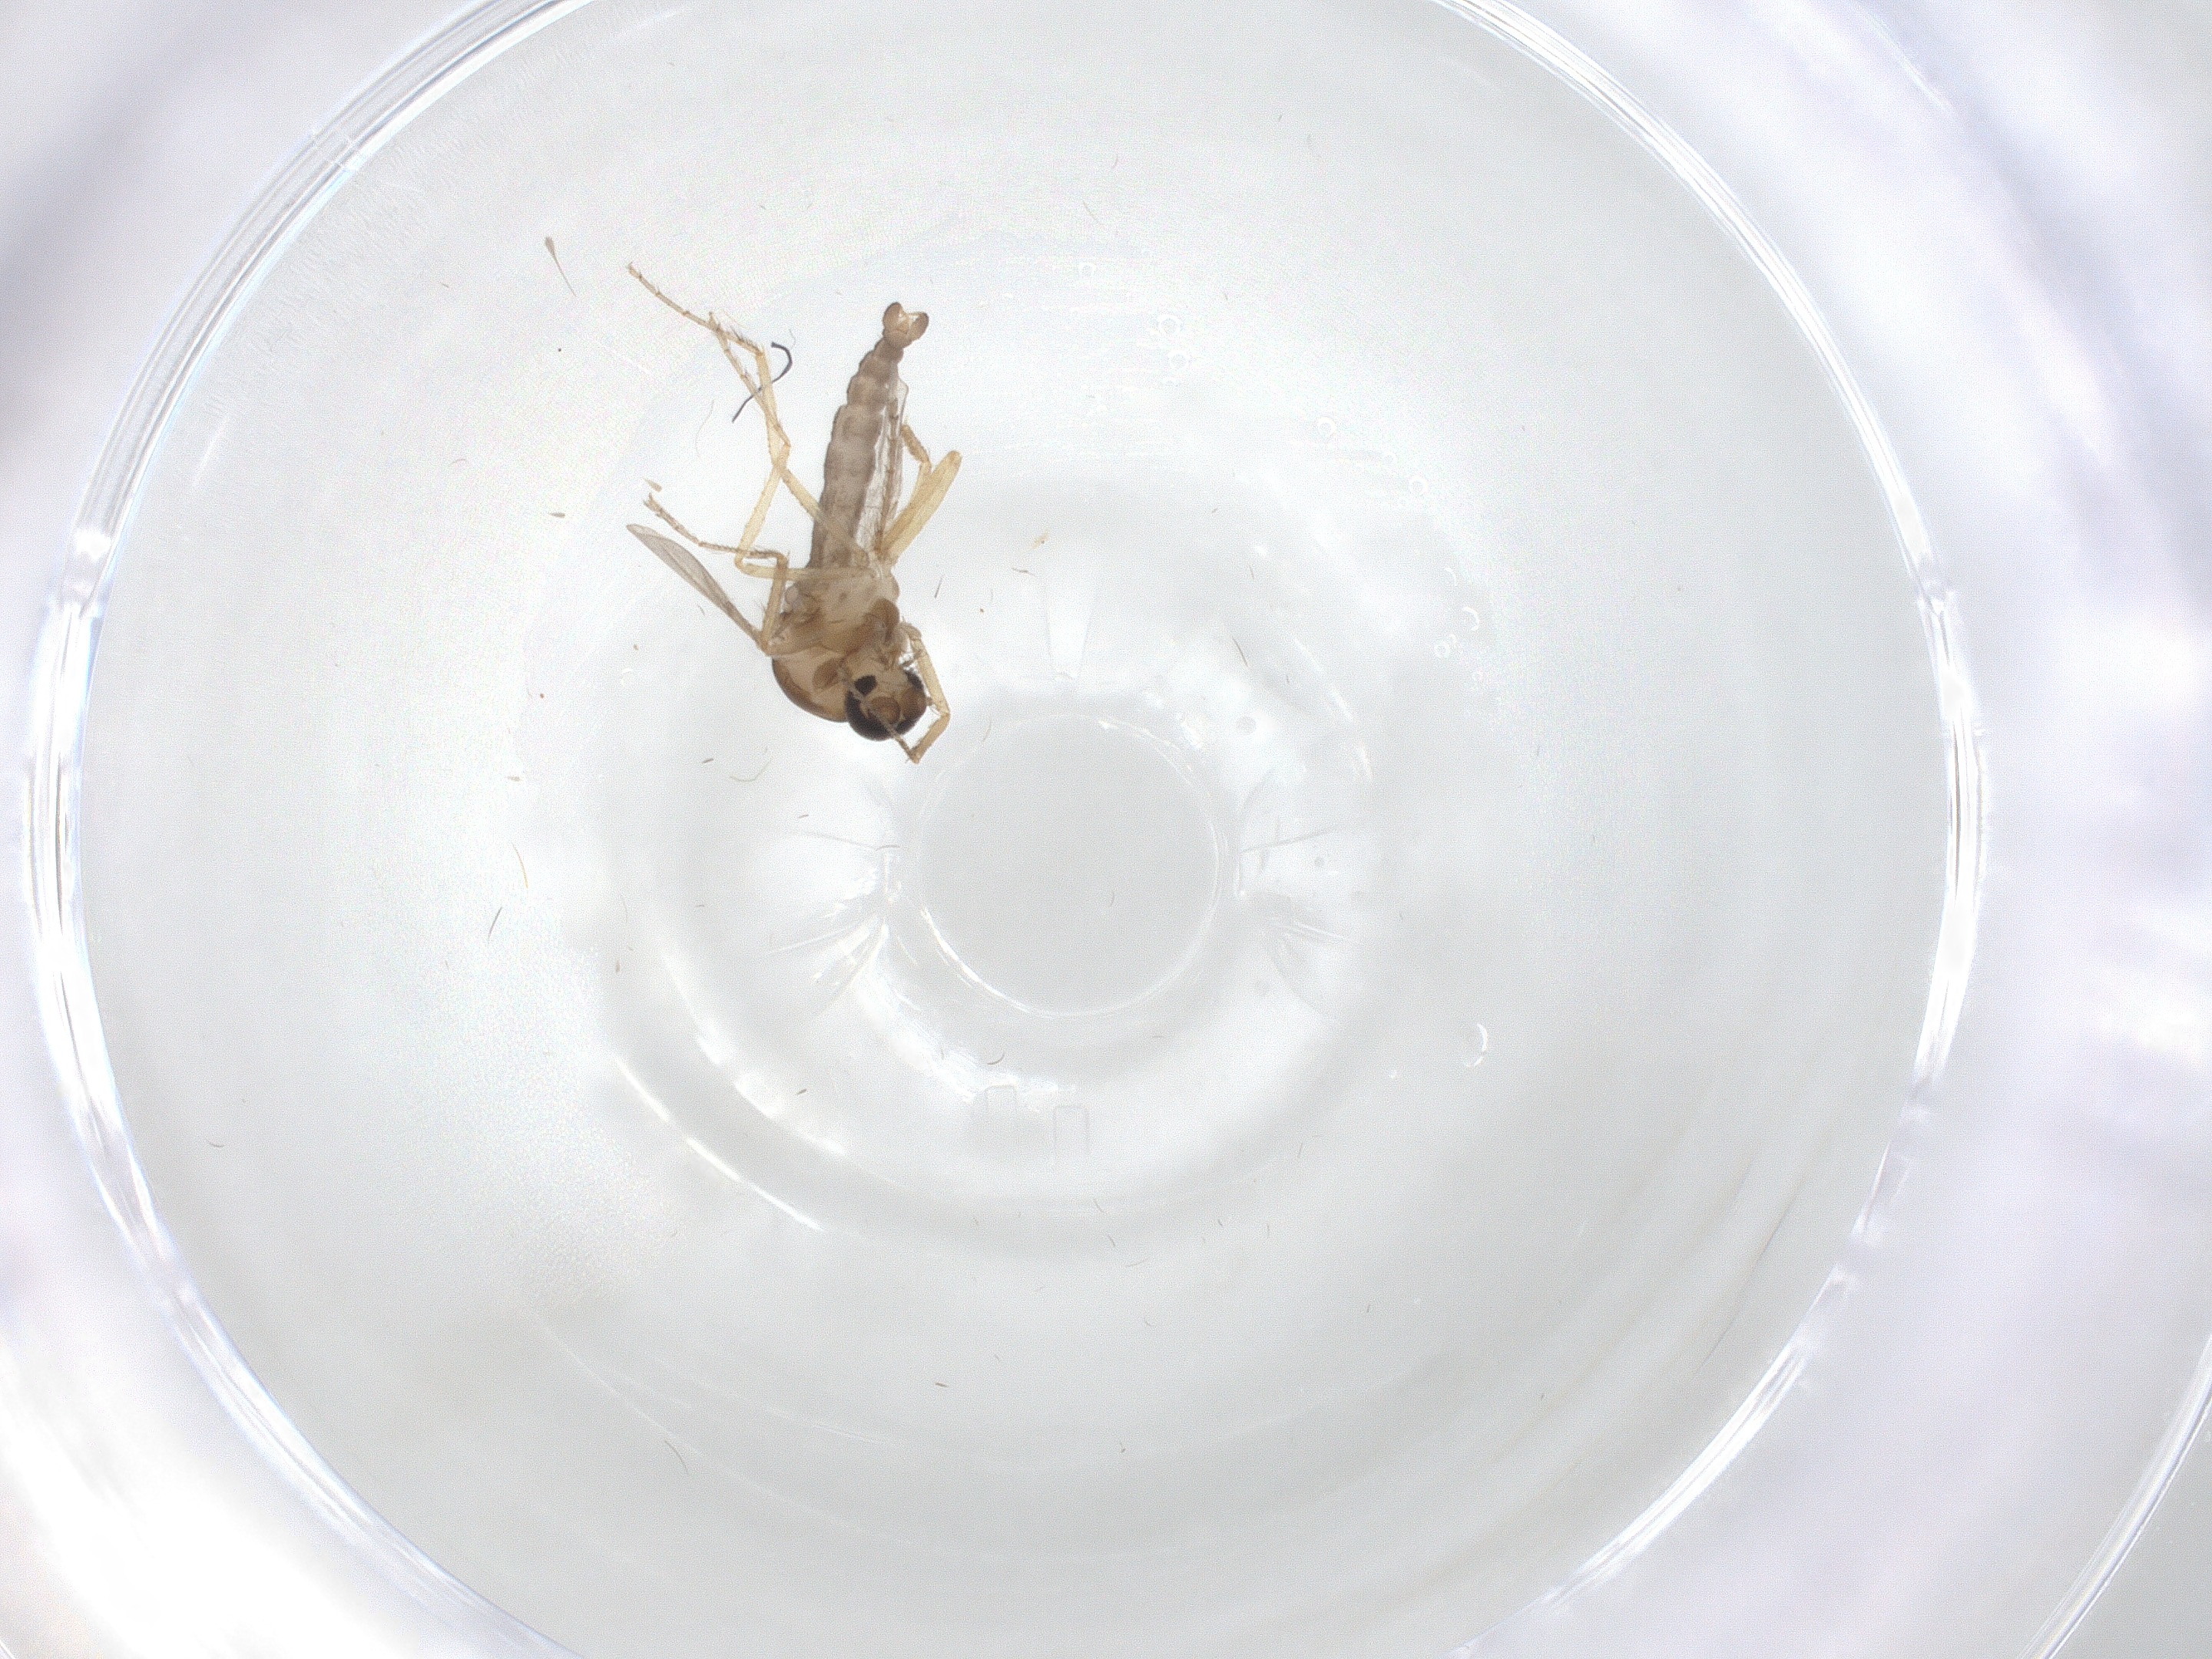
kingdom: Animalia
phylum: Arthropoda
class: Insecta
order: Diptera
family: Ceratopogonidae
